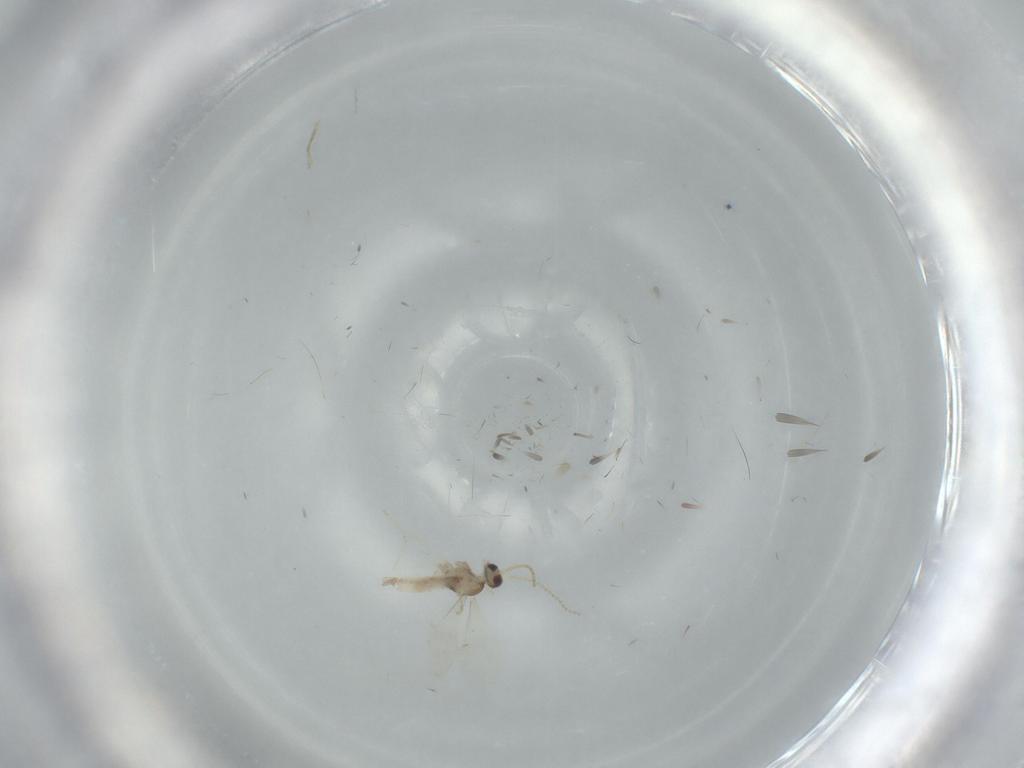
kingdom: Animalia
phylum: Arthropoda
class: Insecta
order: Diptera
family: Cecidomyiidae
